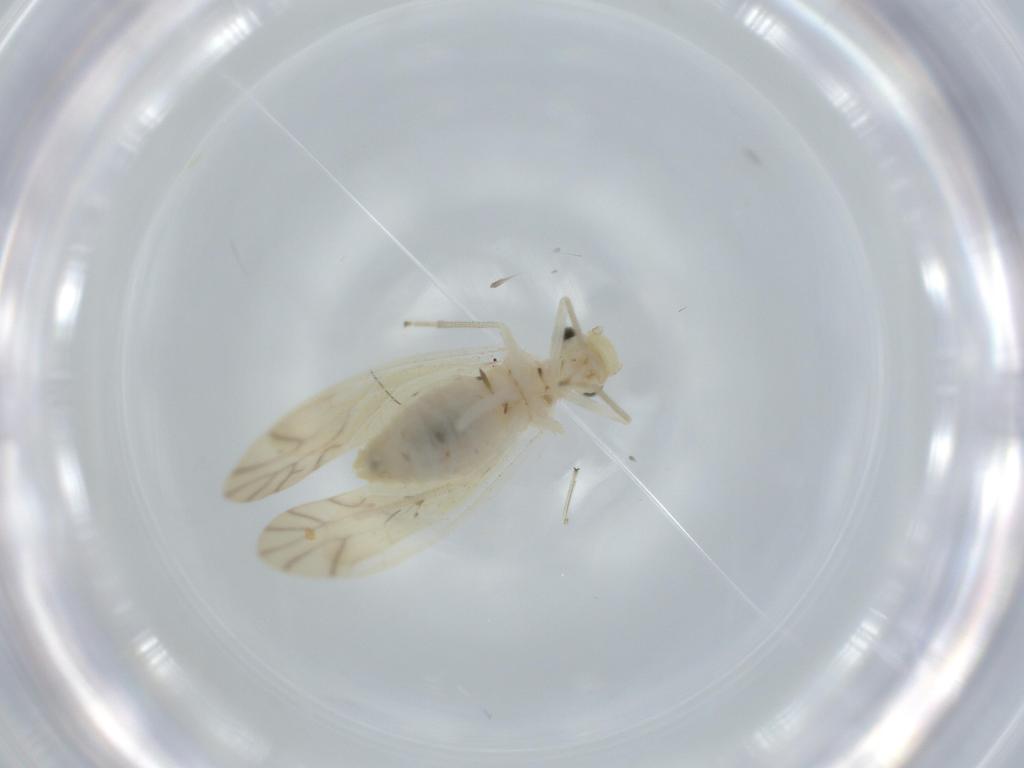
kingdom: Animalia
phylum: Arthropoda
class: Insecta
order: Psocodea
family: Caeciliusidae
